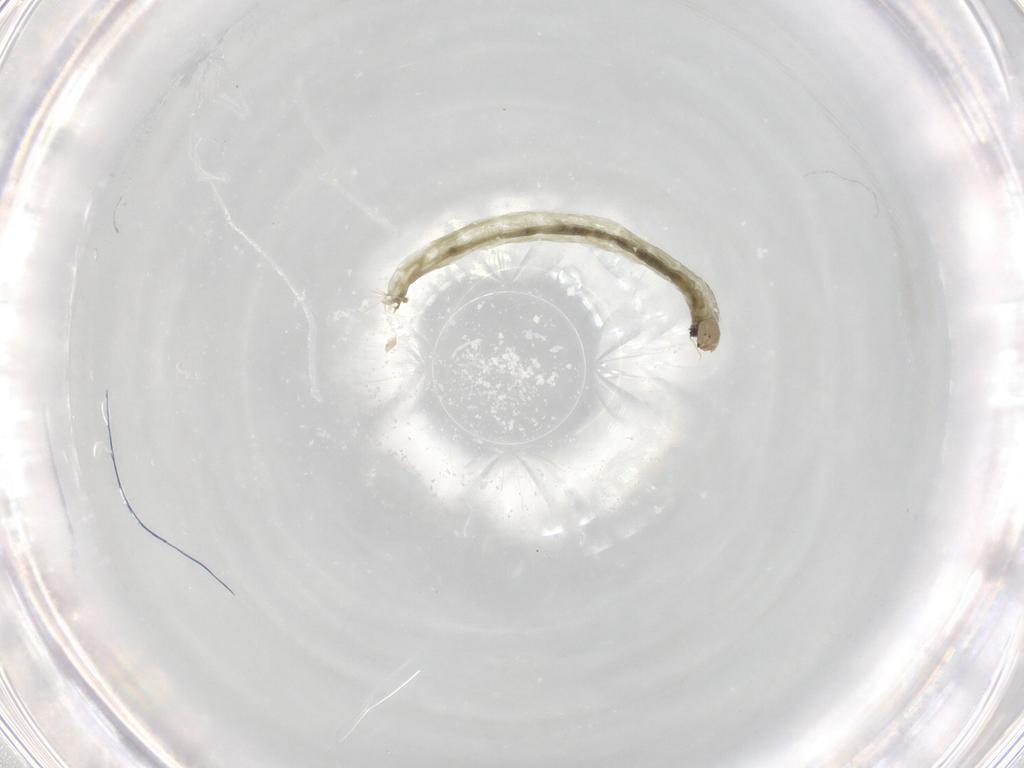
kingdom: Animalia
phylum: Arthropoda
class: Insecta
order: Diptera
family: Chironomidae
